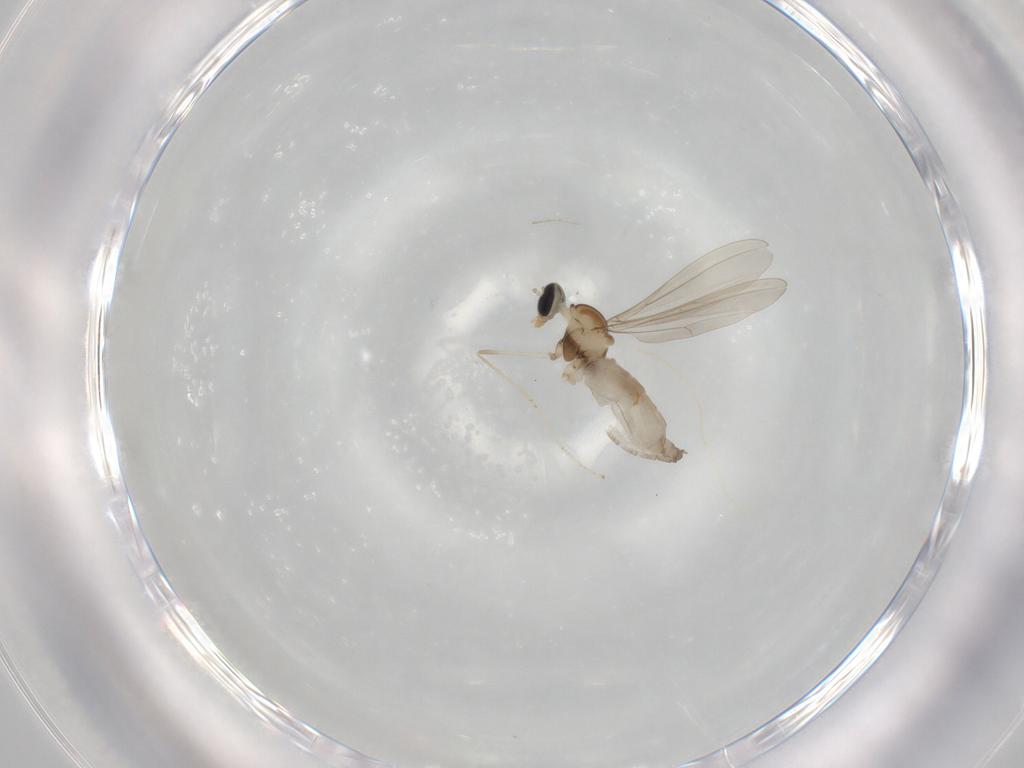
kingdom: Animalia
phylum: Arthropoda
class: Insecta
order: Diptera
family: Cecidomyiidae
